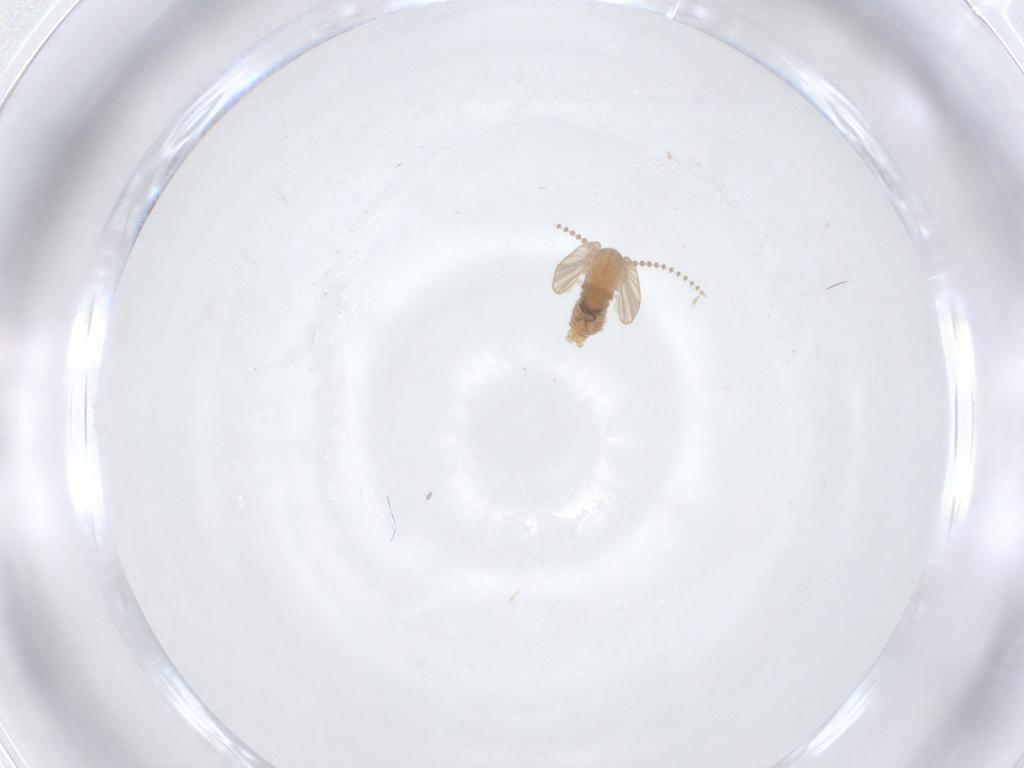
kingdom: Animalia
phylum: Arthropoda
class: Insecta
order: Diptera
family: Psychodidae
